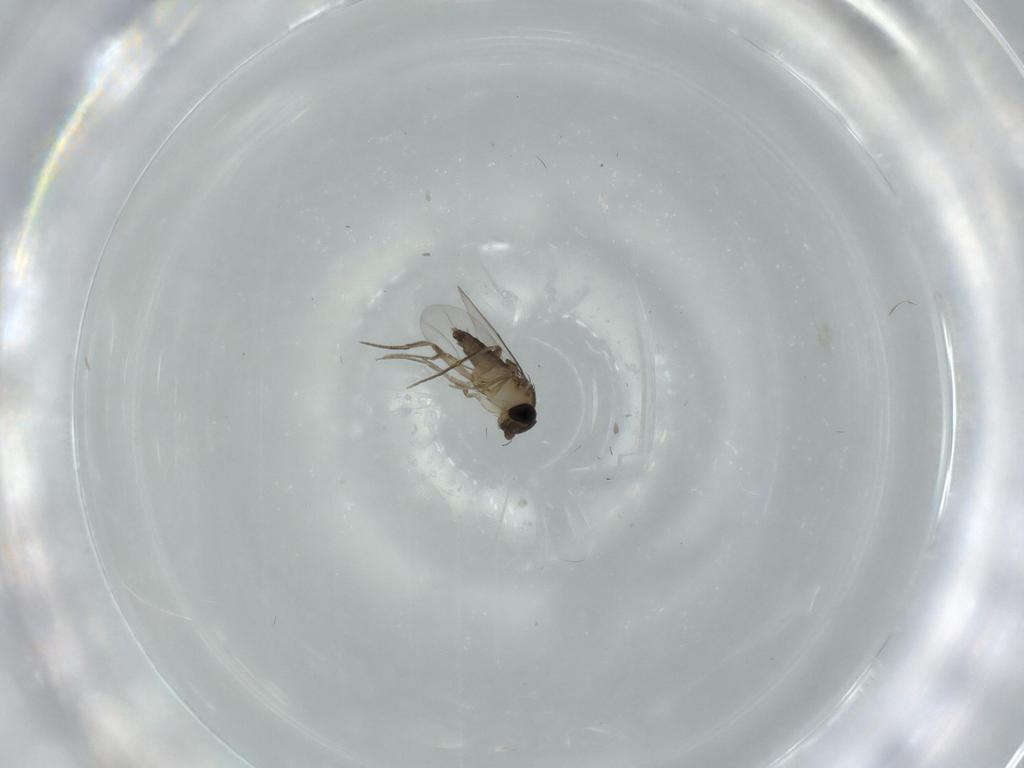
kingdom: Animalia
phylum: Arthropoda
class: Insecta
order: Diptera
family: Phoridae
